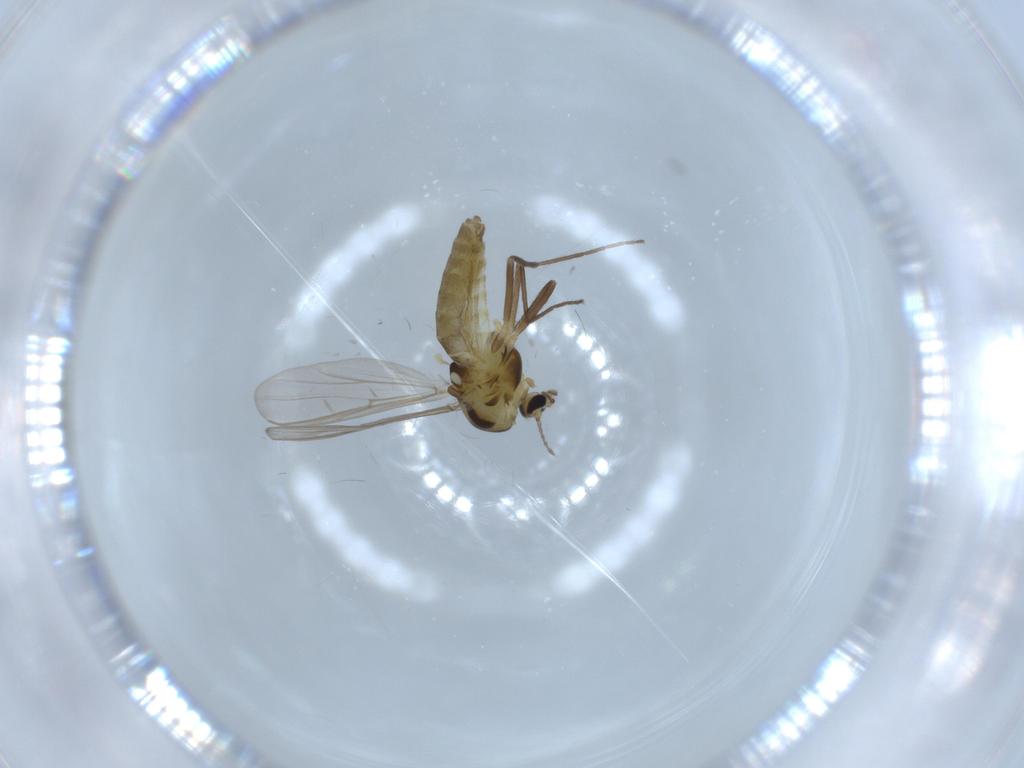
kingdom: Animalia
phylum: Arthropoda
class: Insecta
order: Diptera
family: Chironomidae
